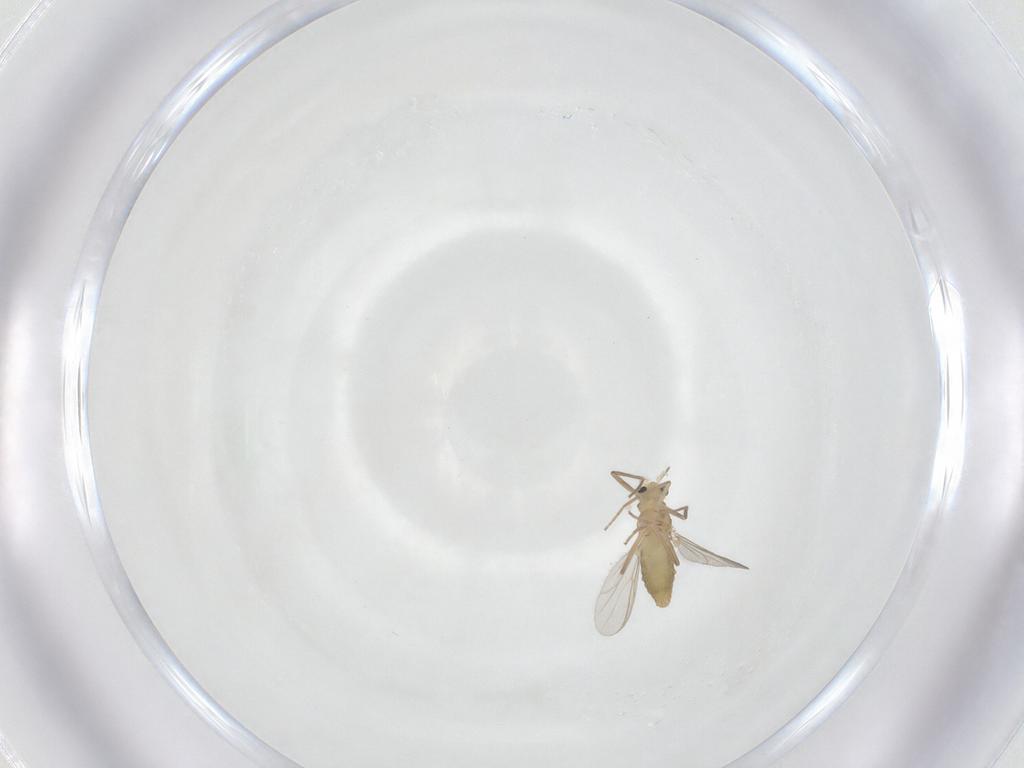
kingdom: Animalia
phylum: Arthropoda
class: Insecta
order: Diptera
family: Chironomidae
